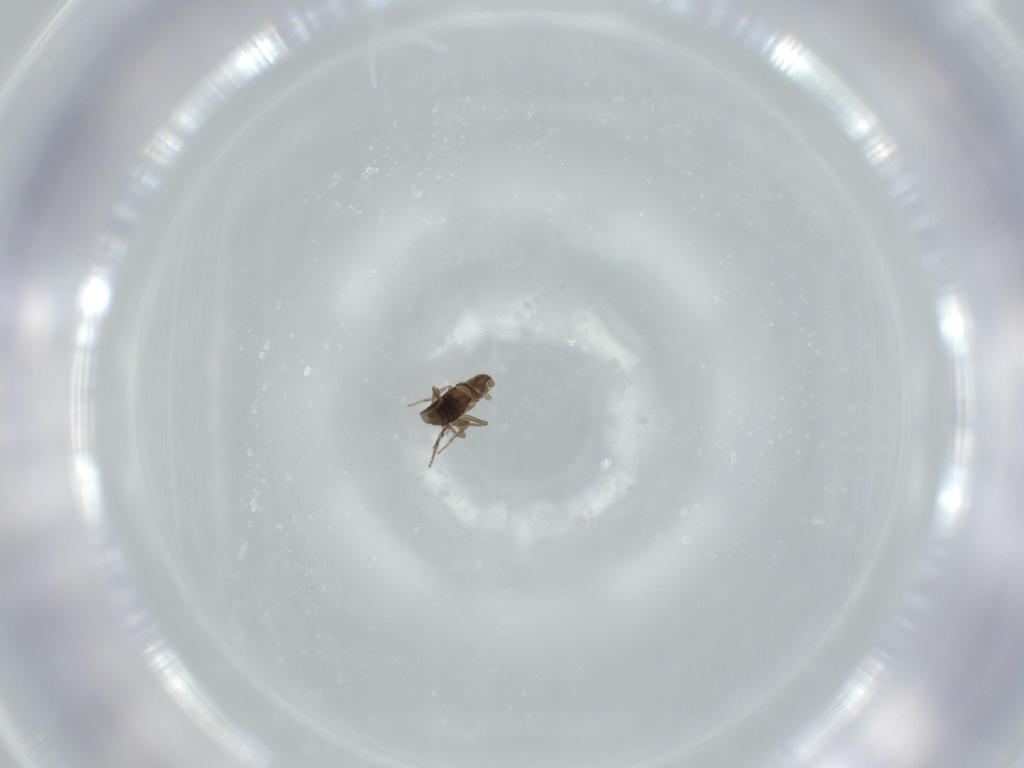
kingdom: Animalia
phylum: Arthropoda
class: Insecta
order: Diptera
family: Phoridae
